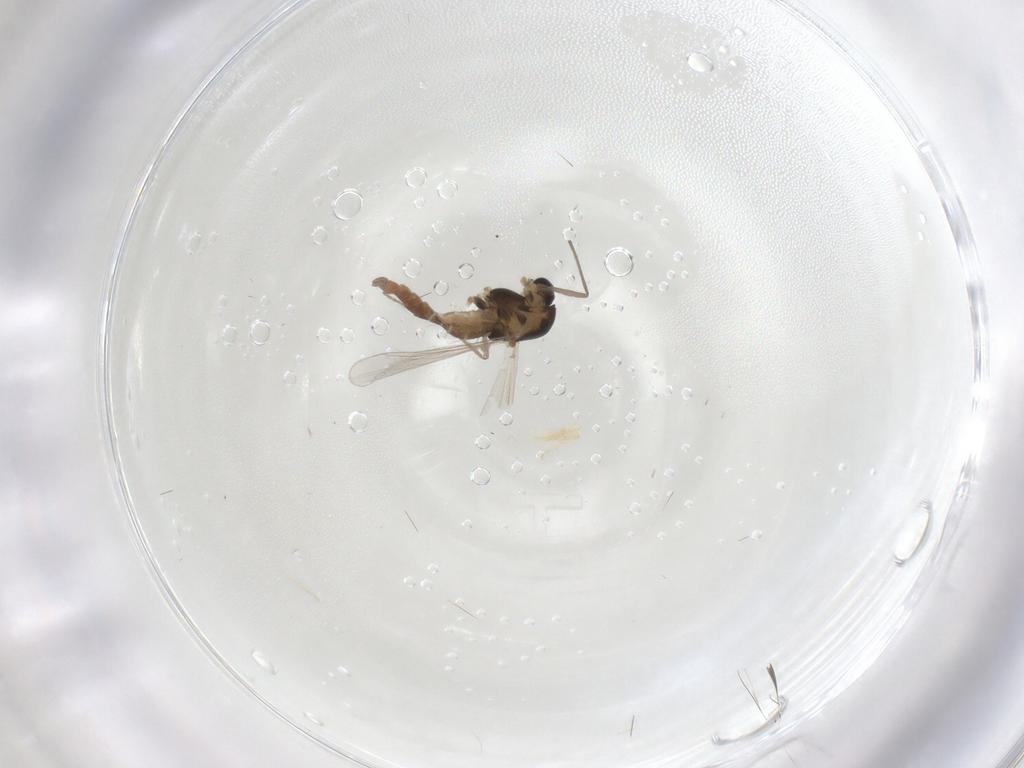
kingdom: Animalia
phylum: Arthropoda
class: Insecta
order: Diptera
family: Chironomidae
